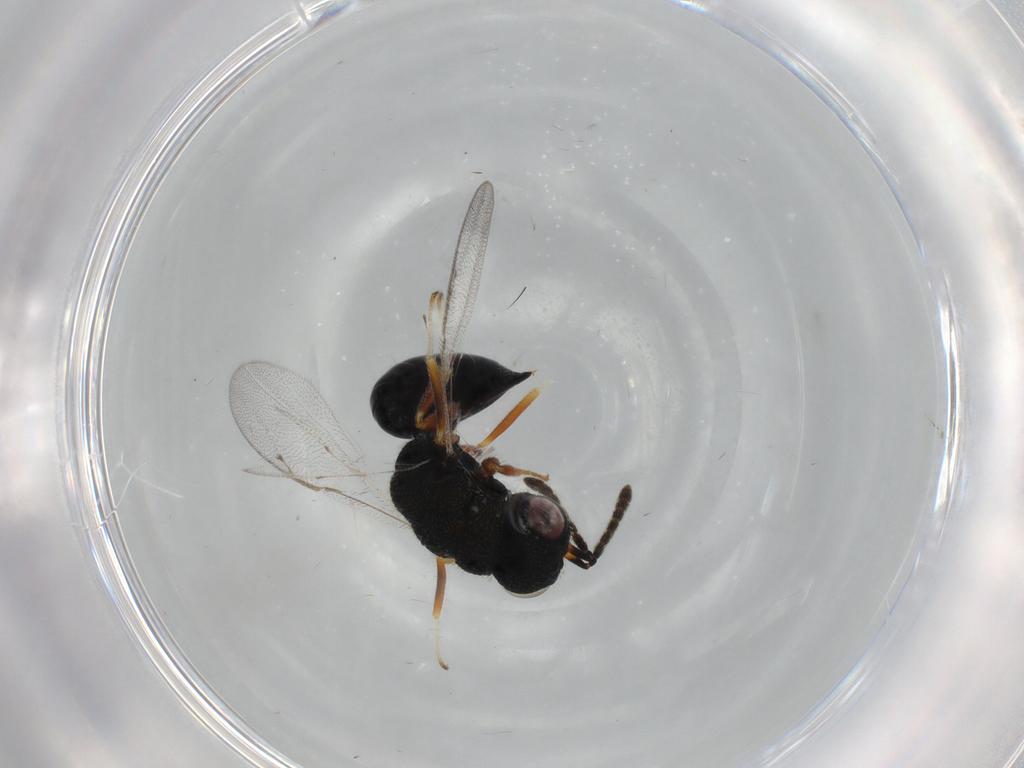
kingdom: Animalia
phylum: Arthropoda
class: Insecta
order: Hymenoptera
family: Eurytomidae
